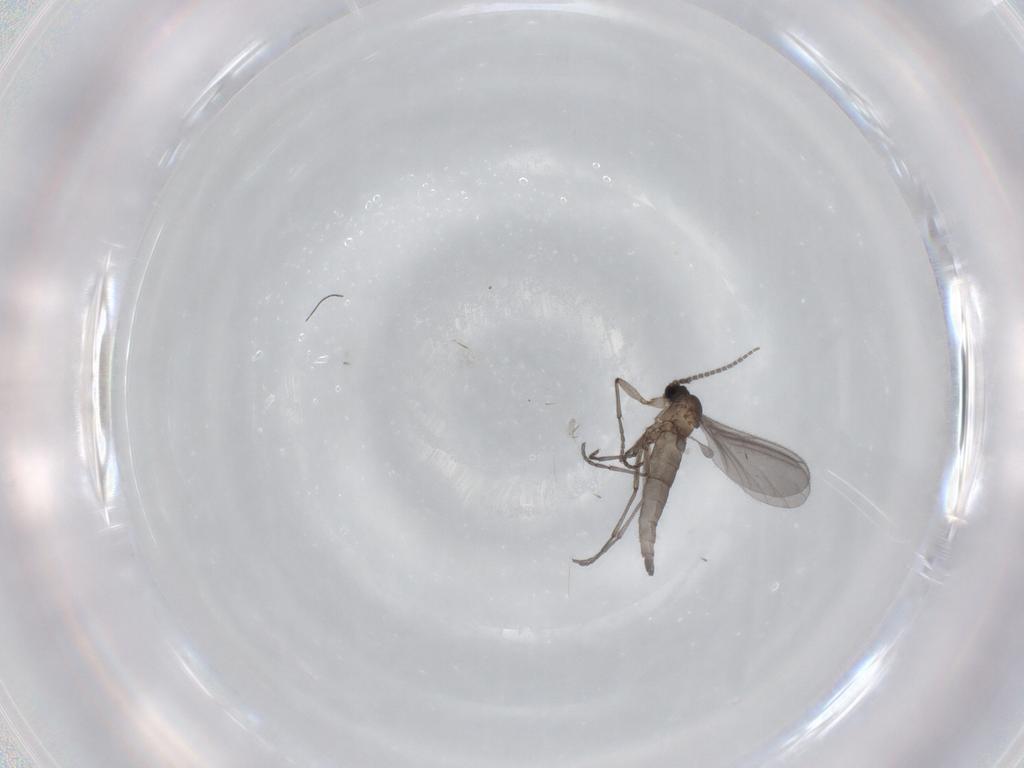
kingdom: Animalia
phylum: Arthropoda
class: Insecta
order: Diptera
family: Sciaridae
